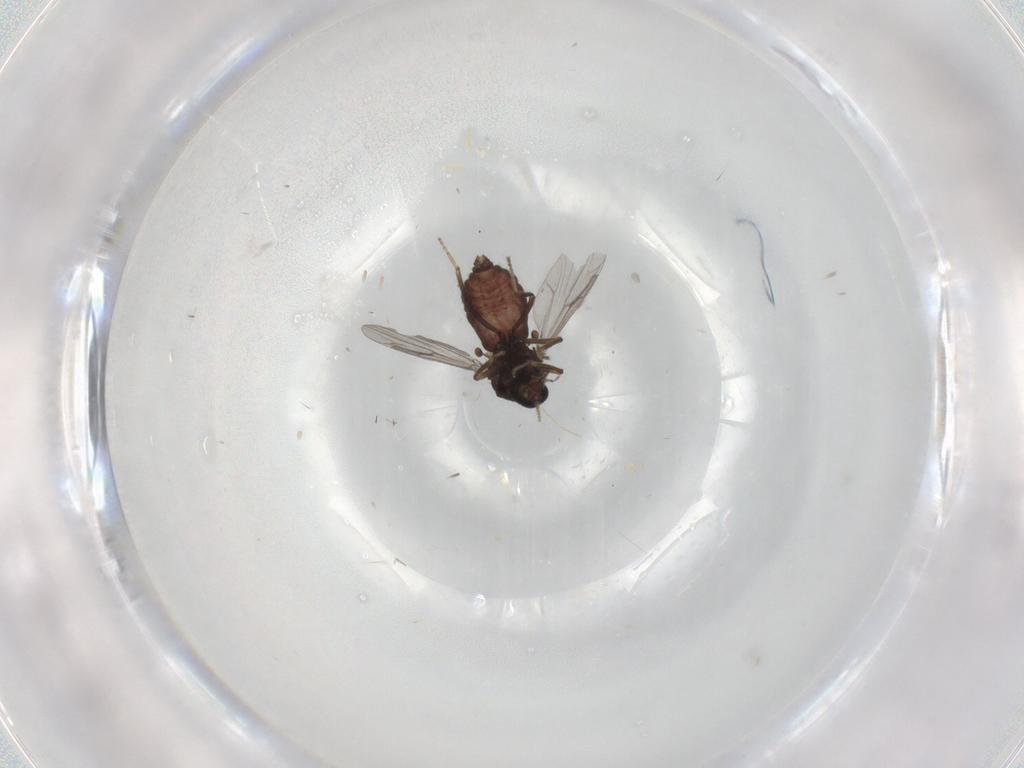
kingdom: Animalia
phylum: Arthropoda
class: Insecta
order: Diptera
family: Ceratopogonidae
